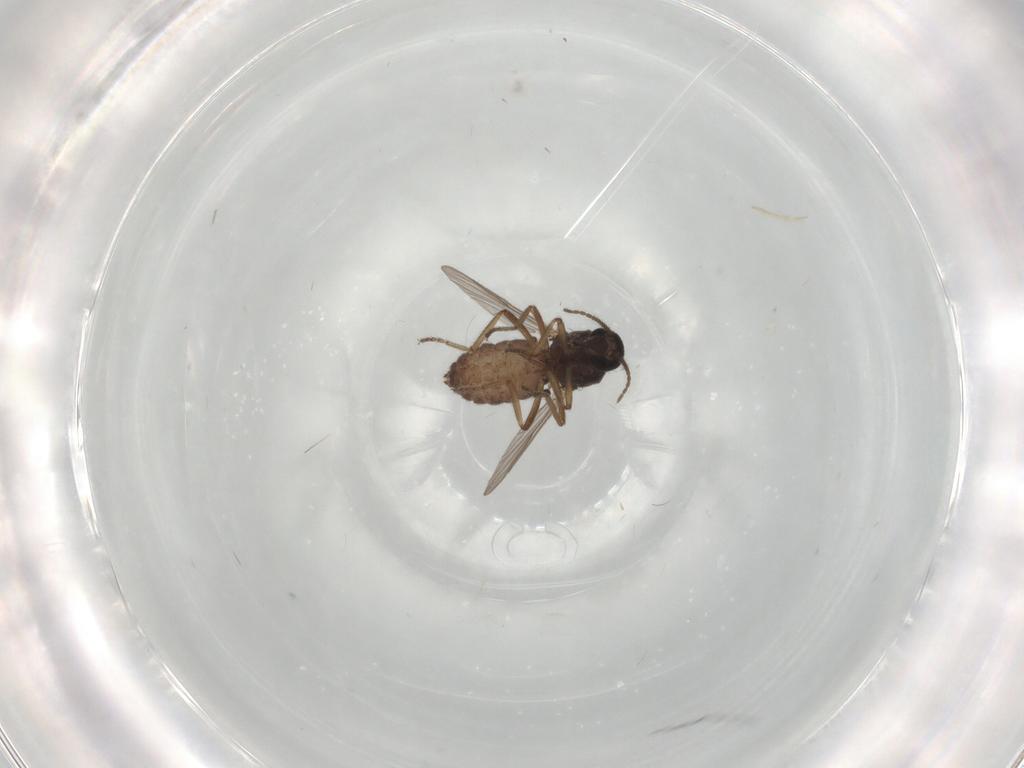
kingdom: Animalia
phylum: Arthropoda
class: Insecta
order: Diptera
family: Ceratopogonidae
